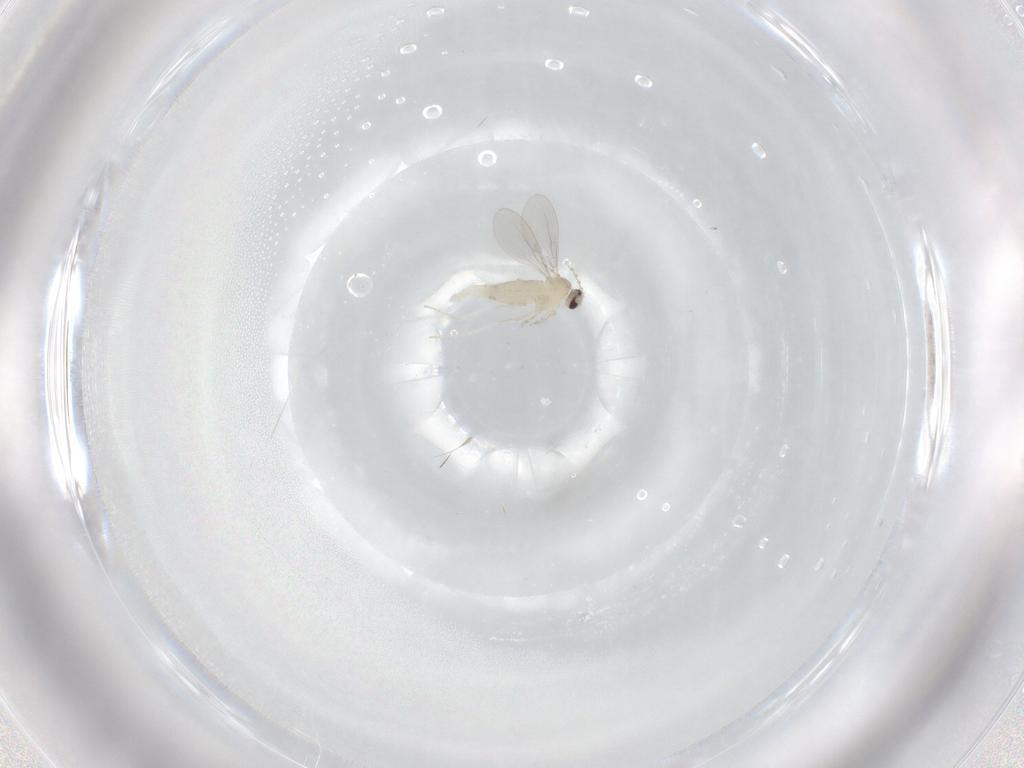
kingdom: Animalia
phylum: Arthropoda
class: Insecta
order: Diptera
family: Cecidomyiidae
